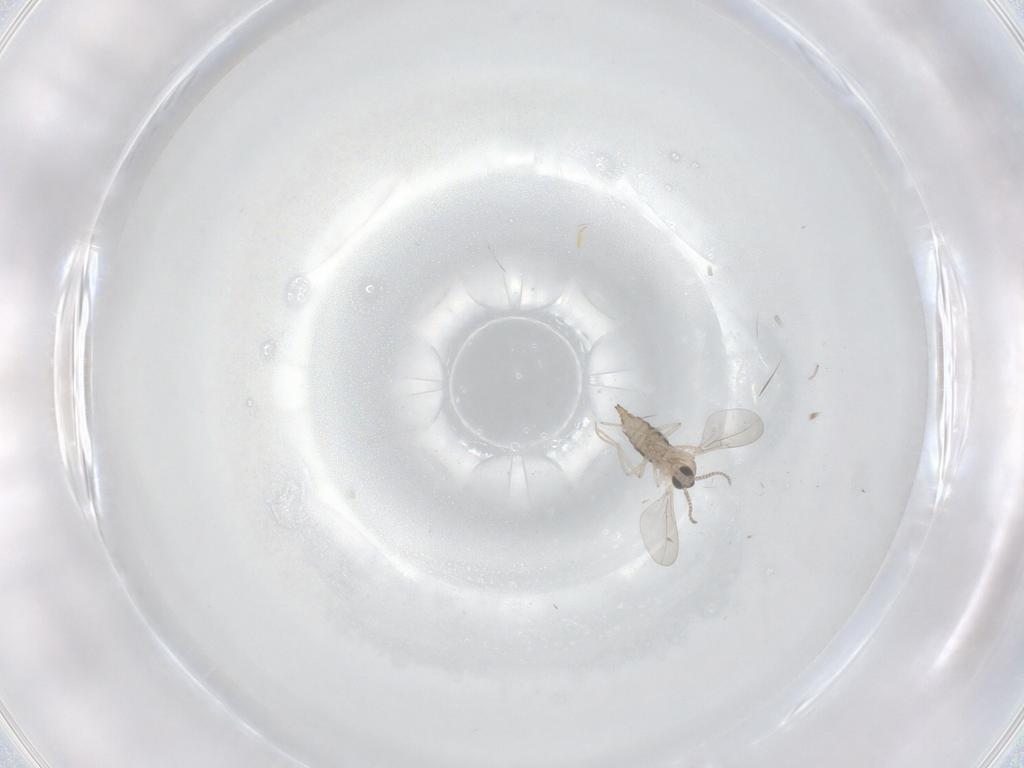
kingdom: Animalia
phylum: Arthropoda
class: Insecta
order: Diptera
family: Cecidomyiidae
